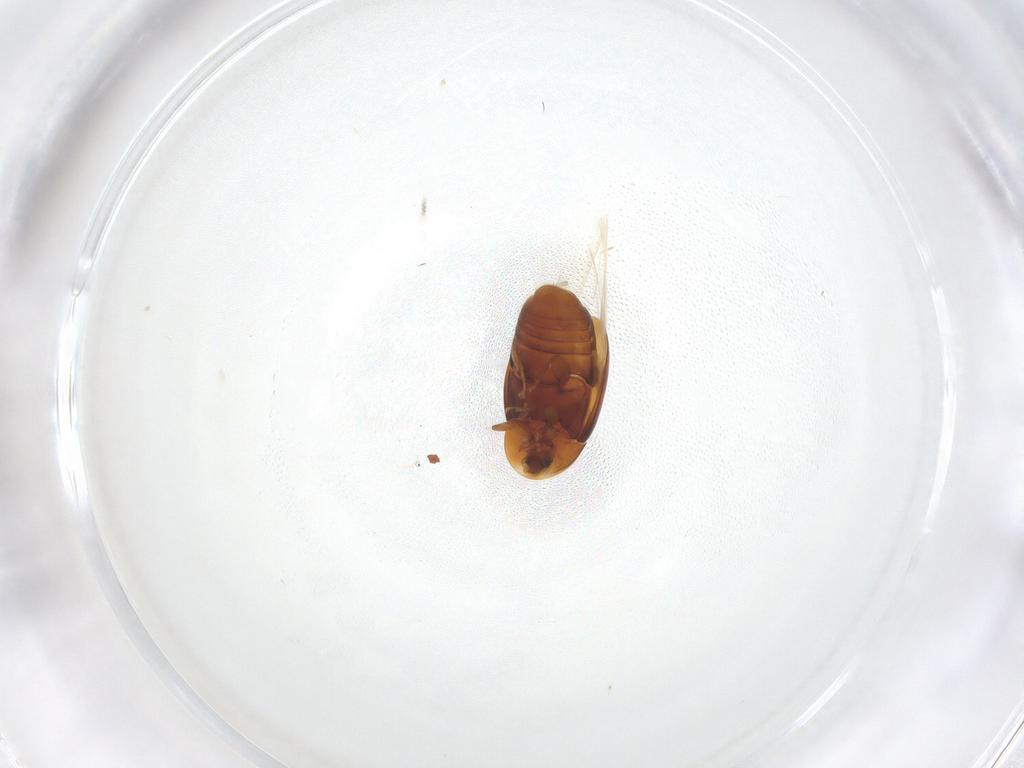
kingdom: Animalia
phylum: Arthropoda
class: Insecta
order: Coleoptera
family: Corylophidae
